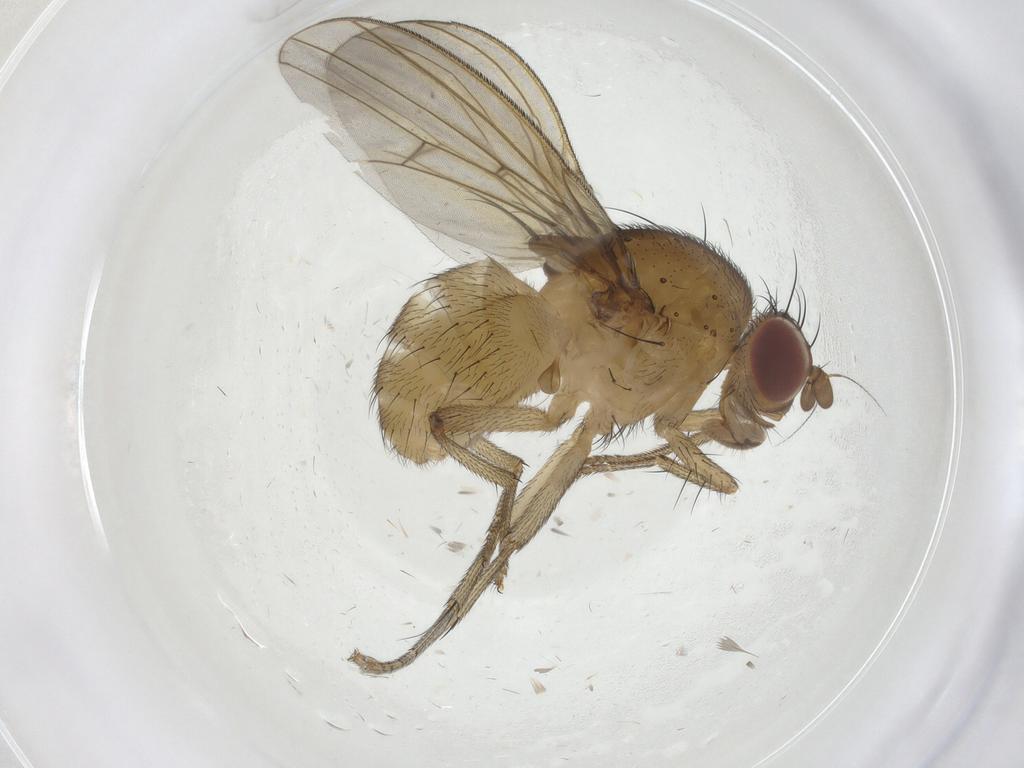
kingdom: Animalia
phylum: Arthropoda
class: Insecta
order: Diptera
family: Chironomidae
